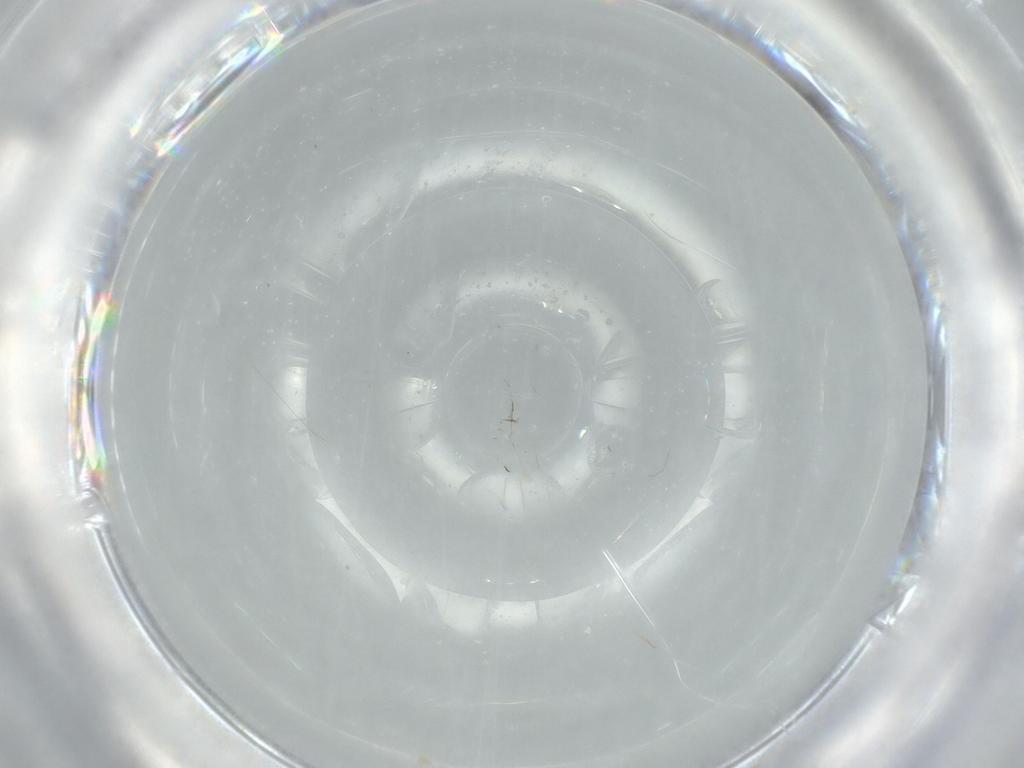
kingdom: Animalia
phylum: Arthropoda
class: Insecta
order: Hymenoptera
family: Scelionidae
